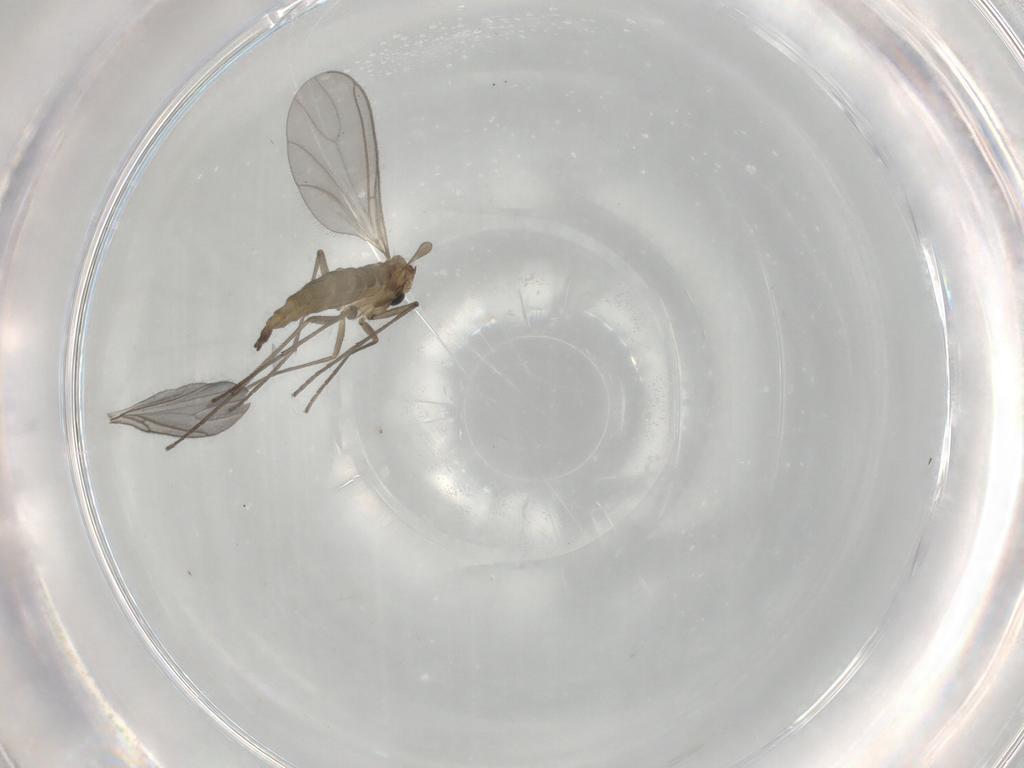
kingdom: Animalia
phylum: Arthropoda
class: Insecta
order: Diptera
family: Sciaridae
